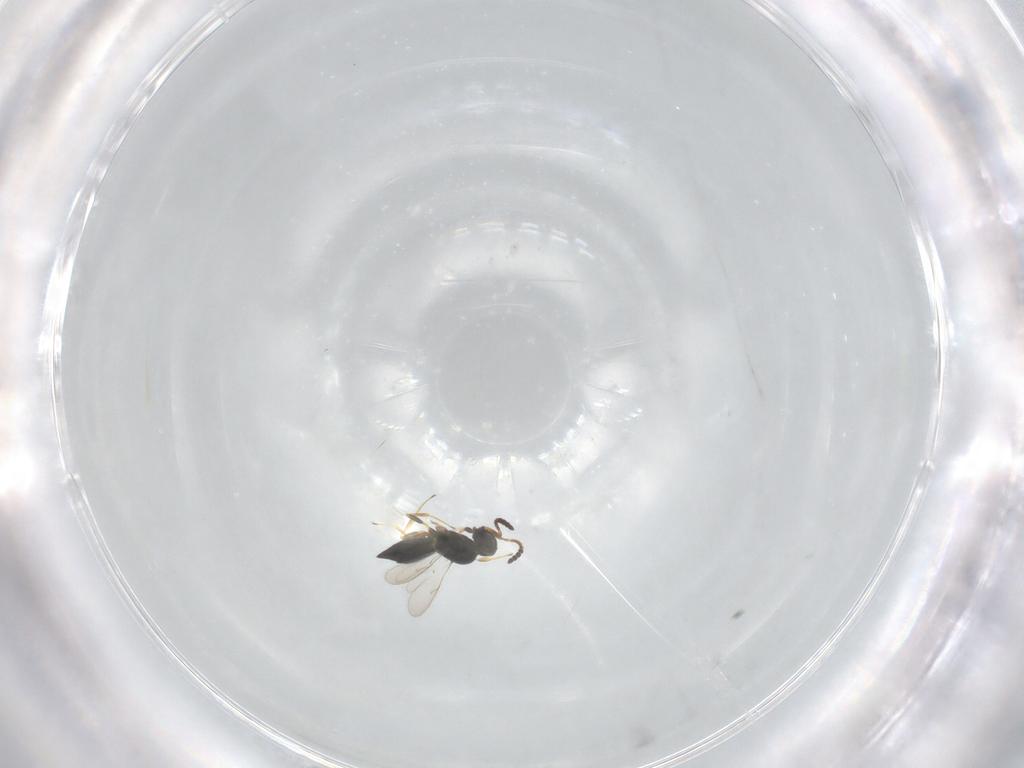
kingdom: Animalia
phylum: Arthropoda
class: Insecta
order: Hymenoptera
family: Scelionidae
